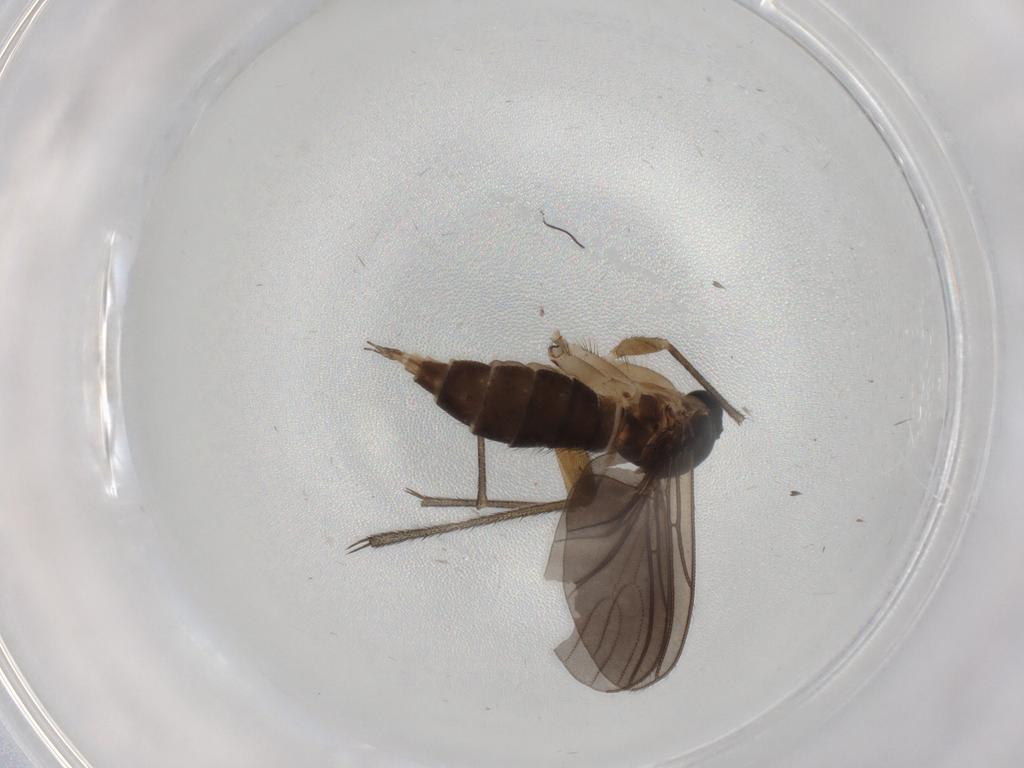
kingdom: Animalia
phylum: Arthropoda
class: Insecta
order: Diptera
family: Sciaridae
